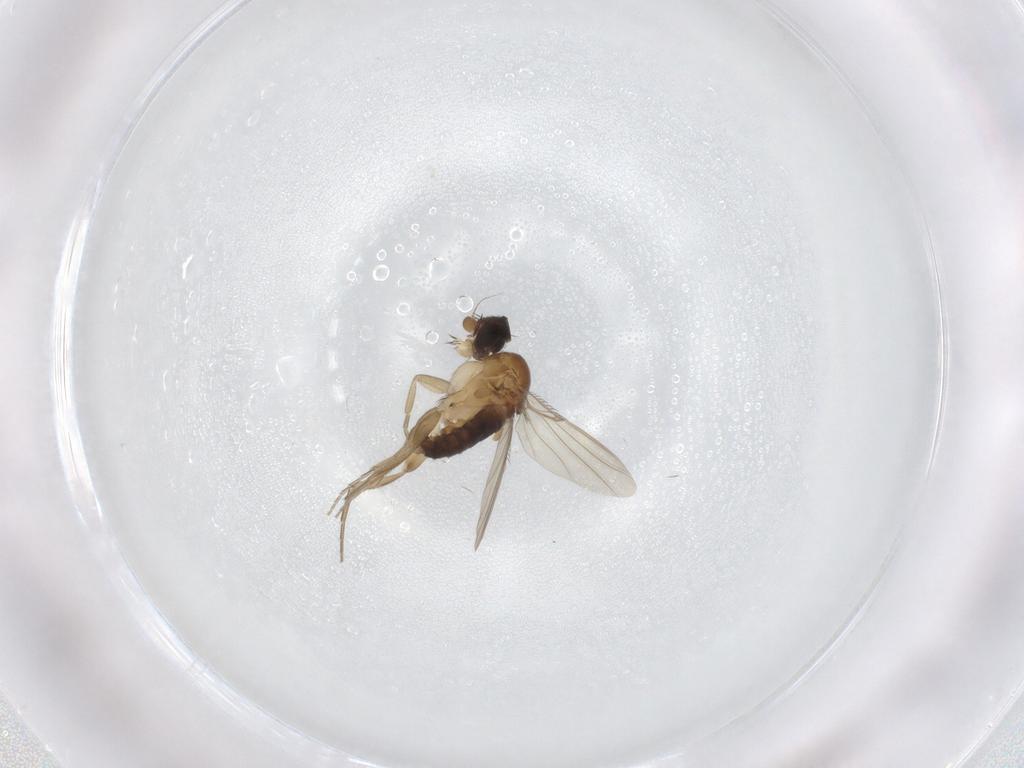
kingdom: Animalia
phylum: Arthropoda
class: Insecta
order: Diptera
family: Phoridae
